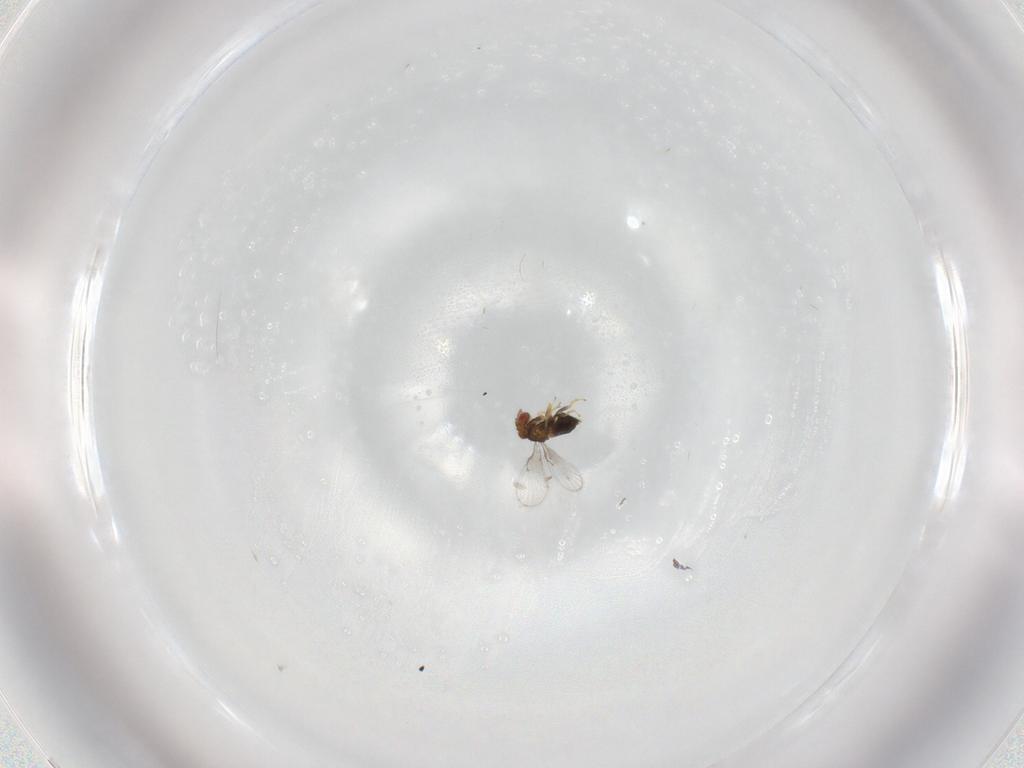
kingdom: Animalia
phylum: Arthropoda
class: Insecta
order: Hymenoptera
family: Trichogrammatidae
